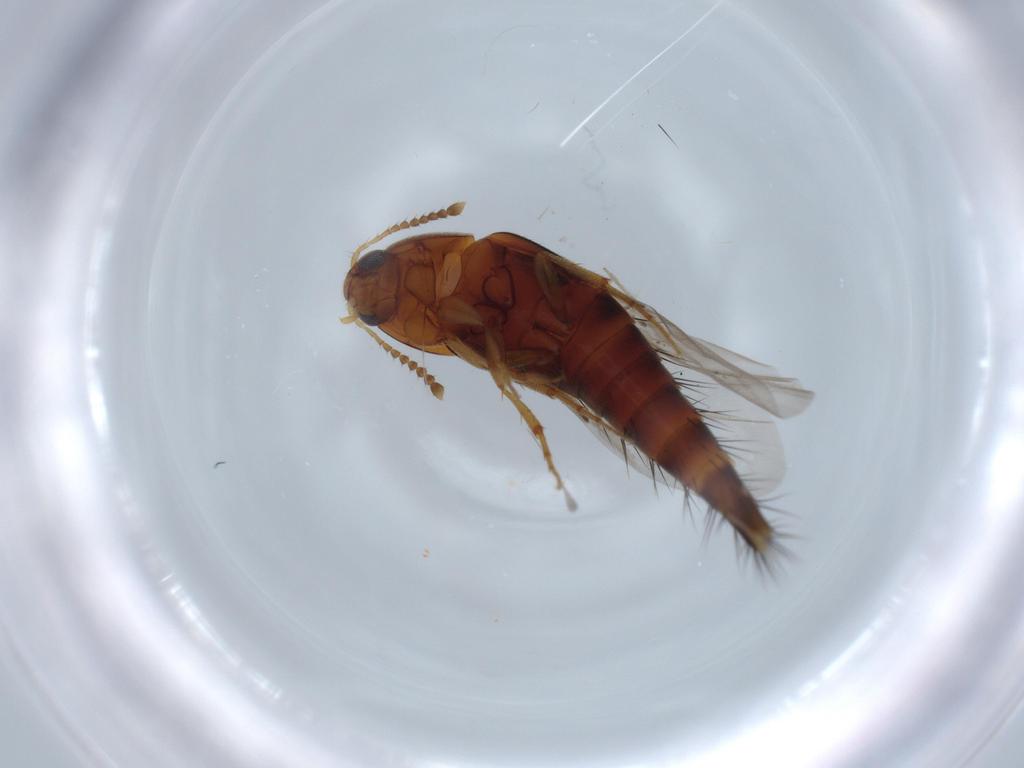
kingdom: Animalia
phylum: Arthropoda
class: Insecta
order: Coleoptera
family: Staphylinidae
